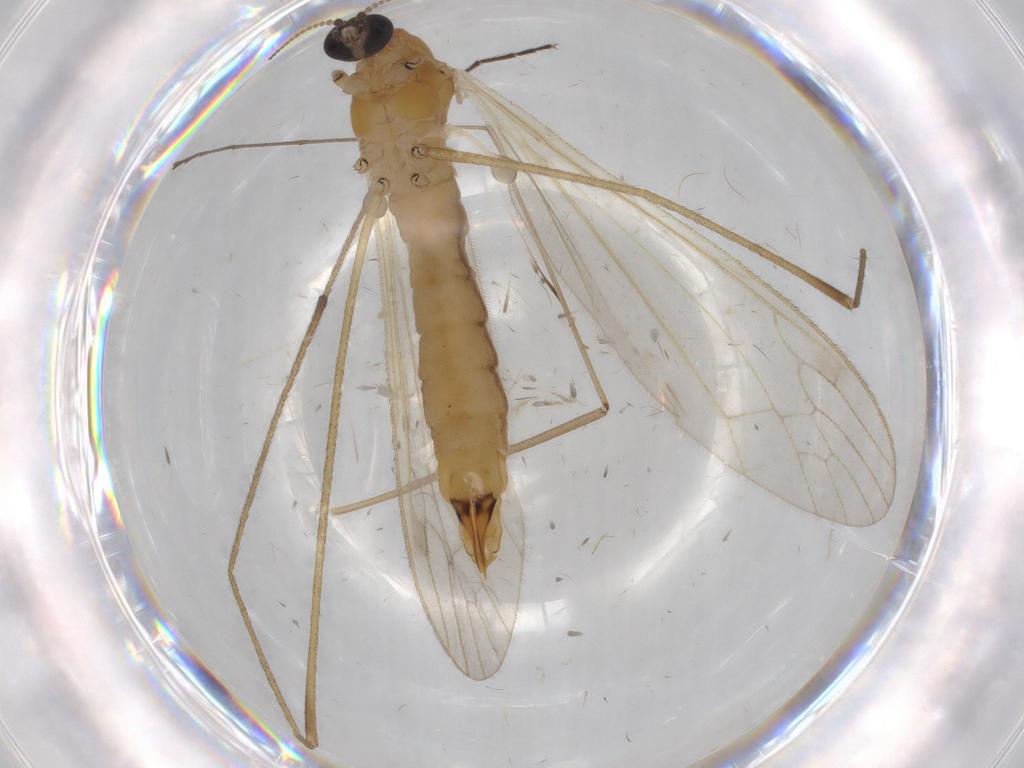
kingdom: Animalia
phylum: Arthropoda
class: Insecta
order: Diptera
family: Limoniidae
